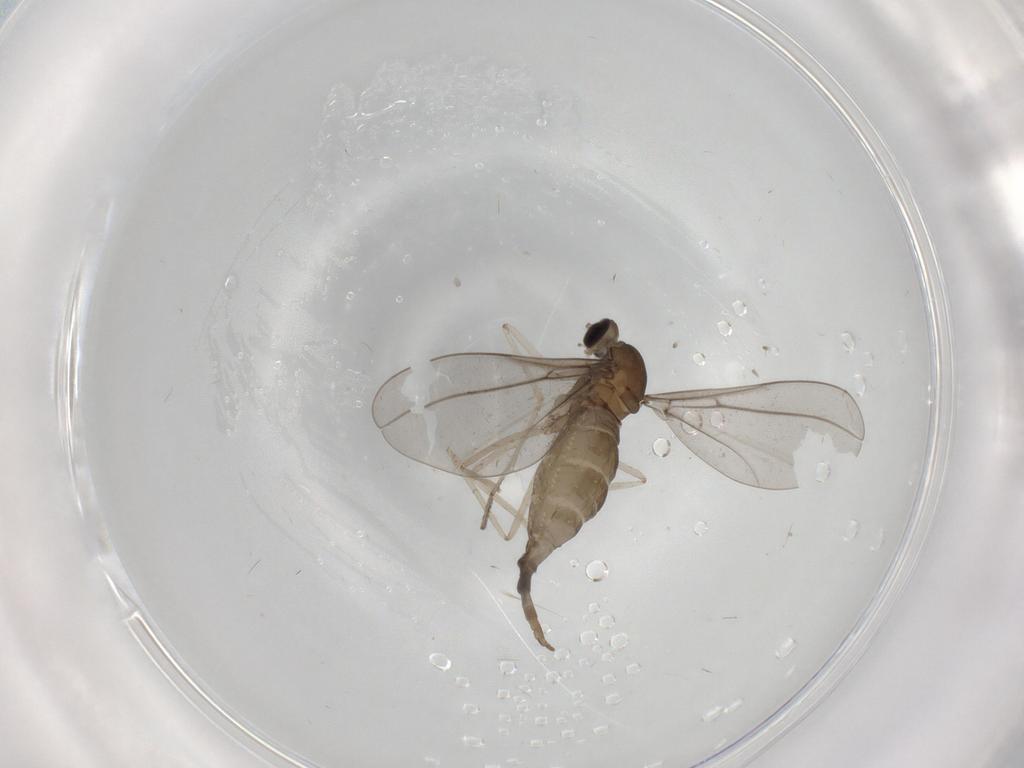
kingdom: Animalia
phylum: Arthropoda
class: Insecta
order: Diptera
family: Cecidomyiidae
